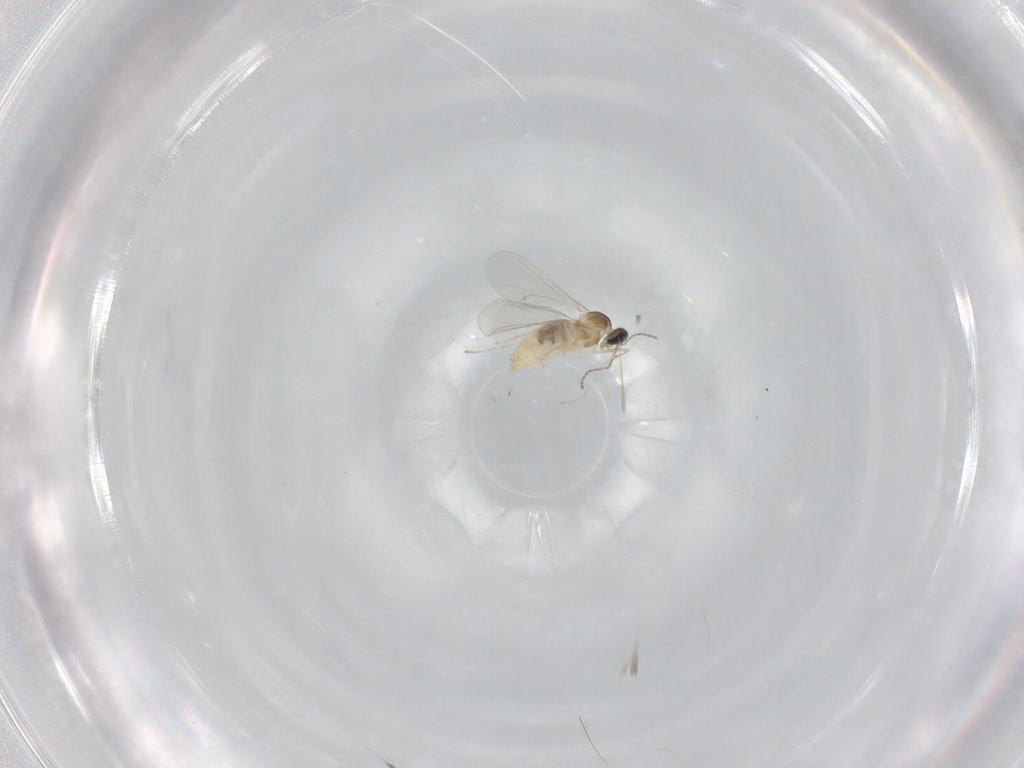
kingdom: Animalia
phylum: Arthropoda
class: Insecta
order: Diptera
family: Cecidomyiidae
